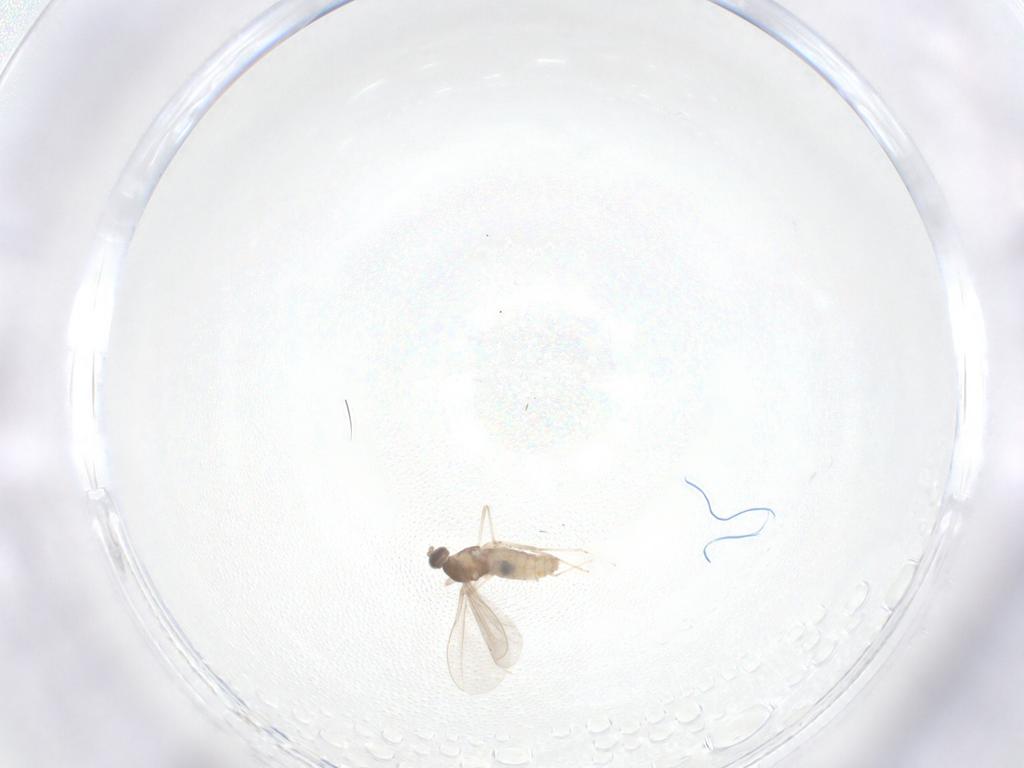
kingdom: Animalia
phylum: Arthropoda
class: Insecta
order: Diptera
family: Cecidomyiidae
